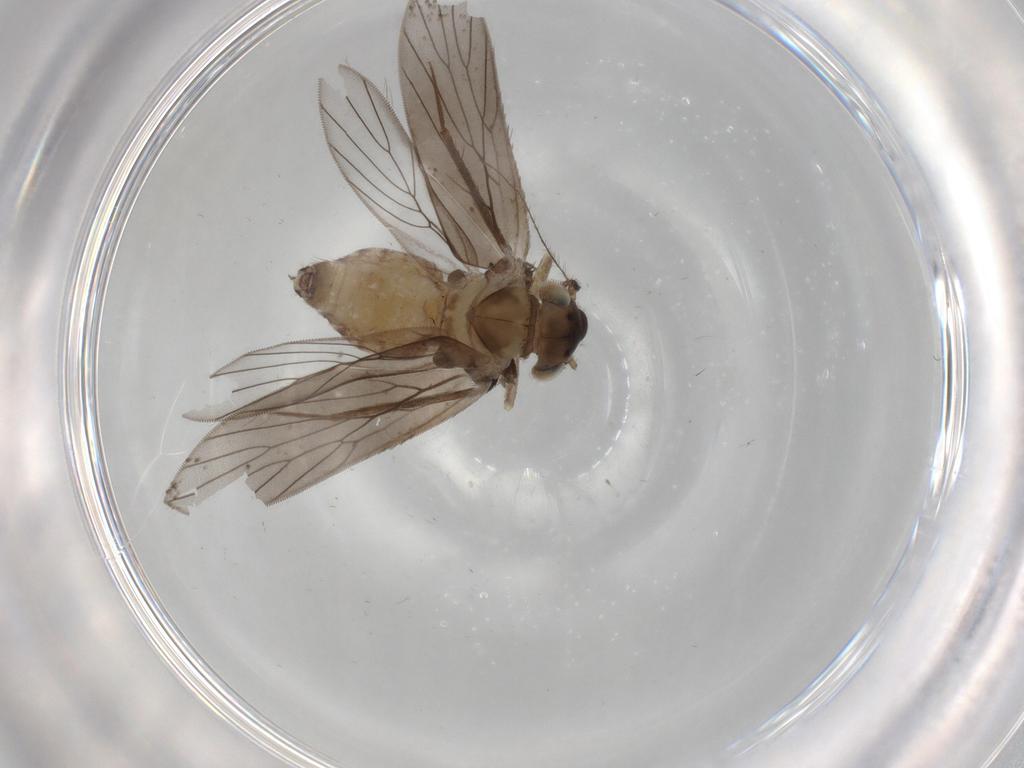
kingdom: Animalia
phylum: Arthropoda
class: Insecta
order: Psocodea
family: Lepidopsocidae
